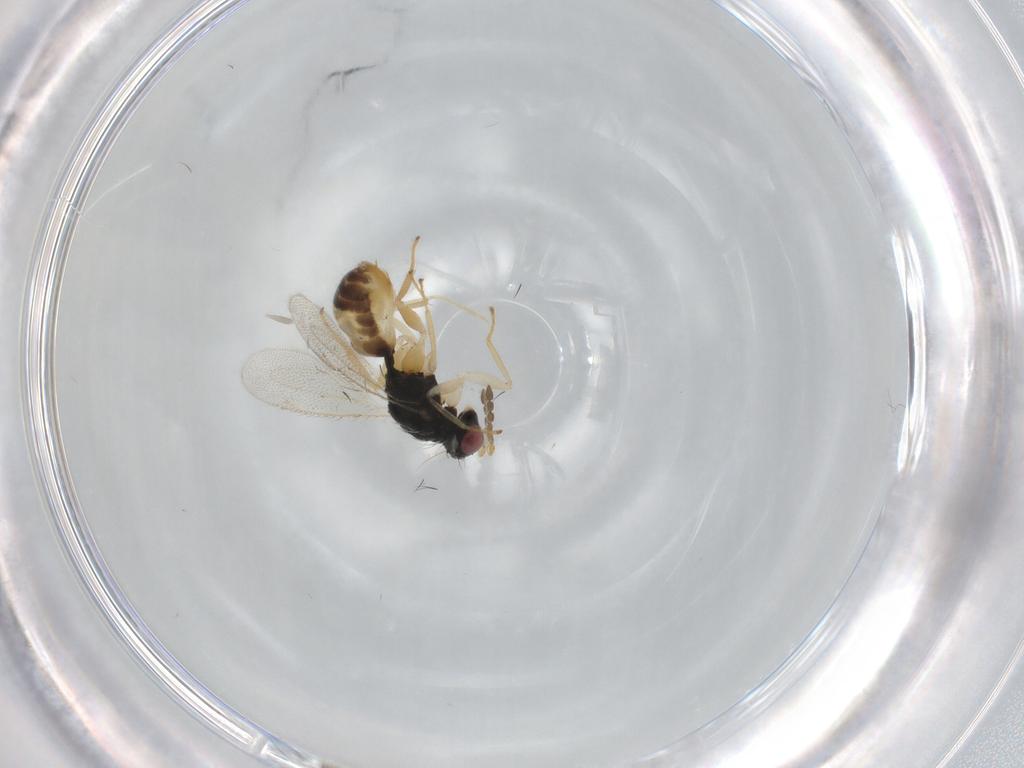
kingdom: Animalia
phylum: Arthropoda
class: Insecta
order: Hymenoptera
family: Eulophidae
